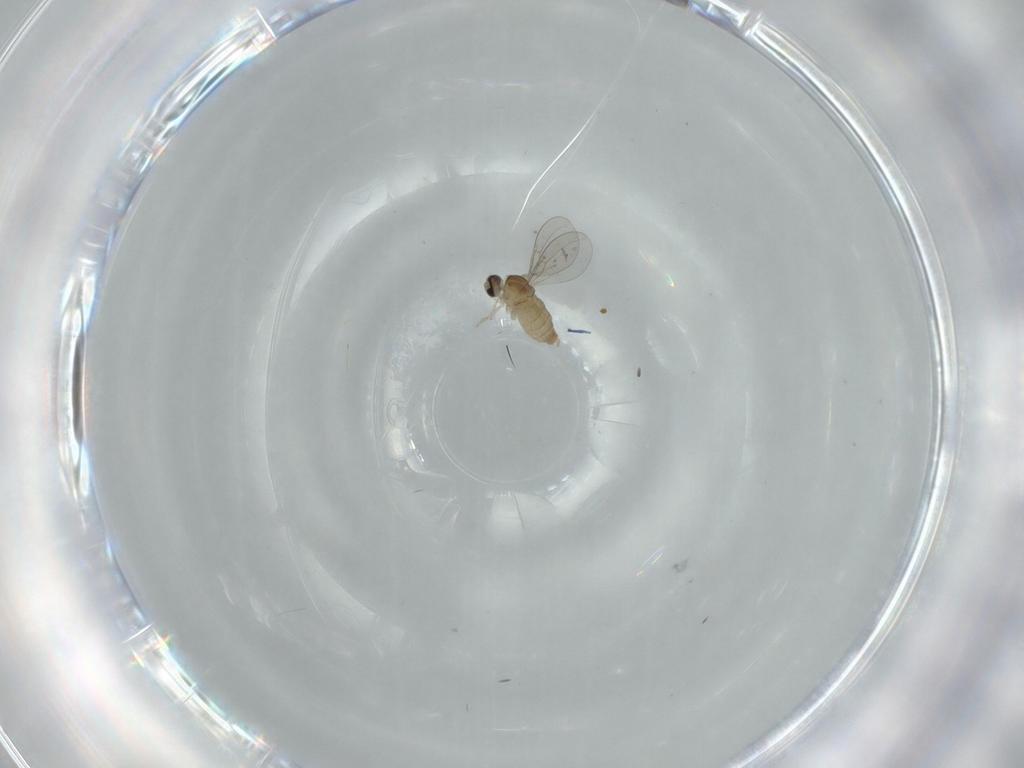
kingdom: Animalia
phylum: Arthropoda
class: Insecta
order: Diptera
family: Cecidomyiidae
